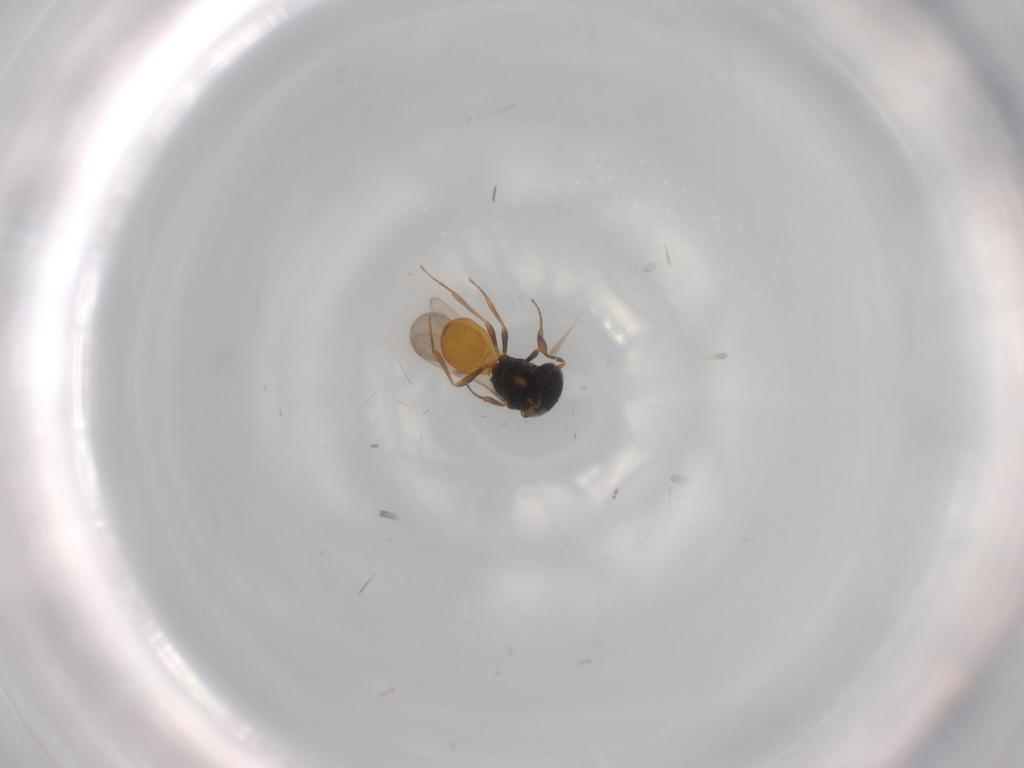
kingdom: Animalia
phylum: Arthropoda
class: Insecta
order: Hymenoptera
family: Scelionidae
